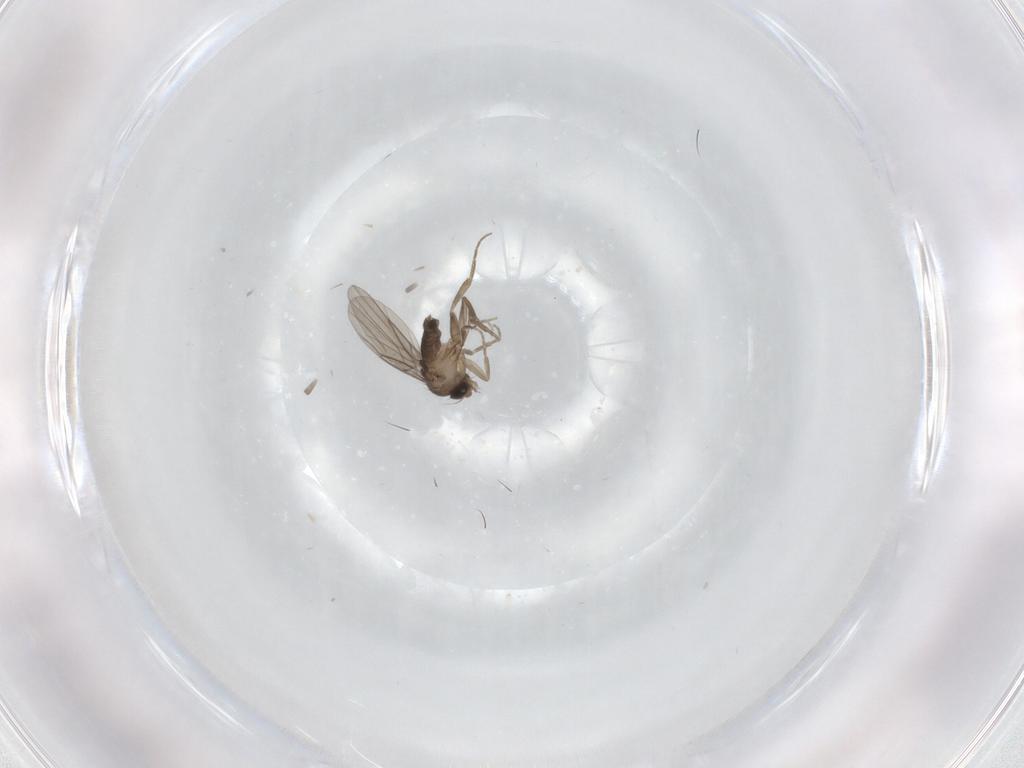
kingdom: Animalia
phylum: Arthropoda
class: Insecta
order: Diptera
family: Phoridae
